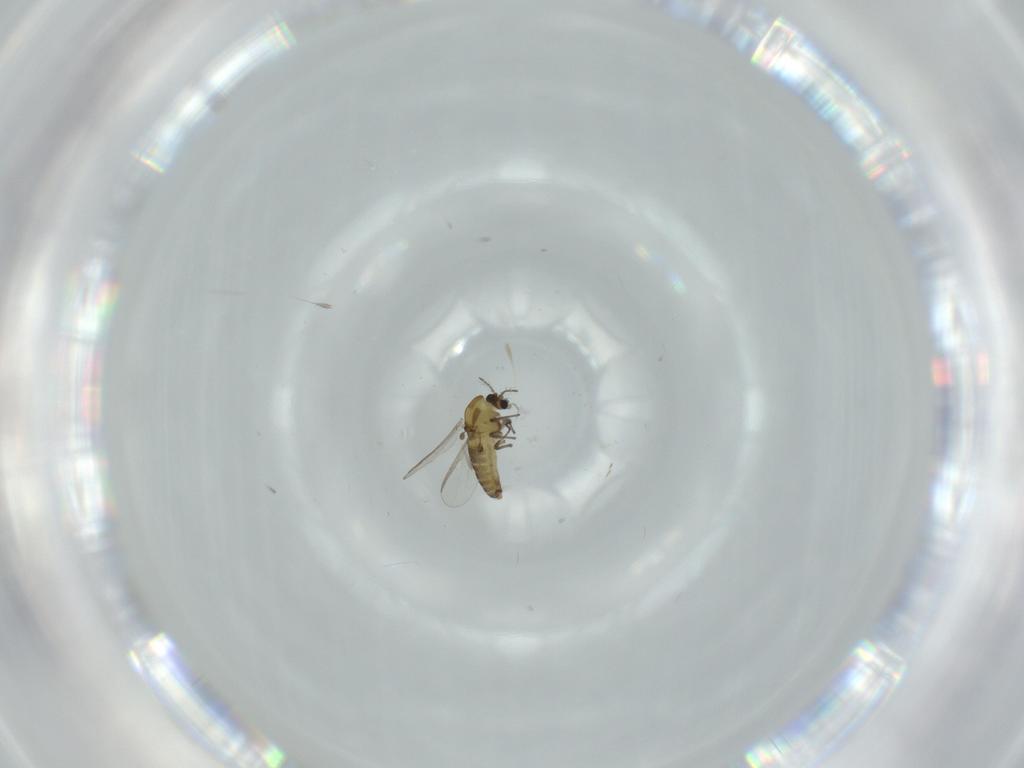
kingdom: Animalia
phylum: Arthropoda
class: Insecta
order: Diptera
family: Chironomidae
